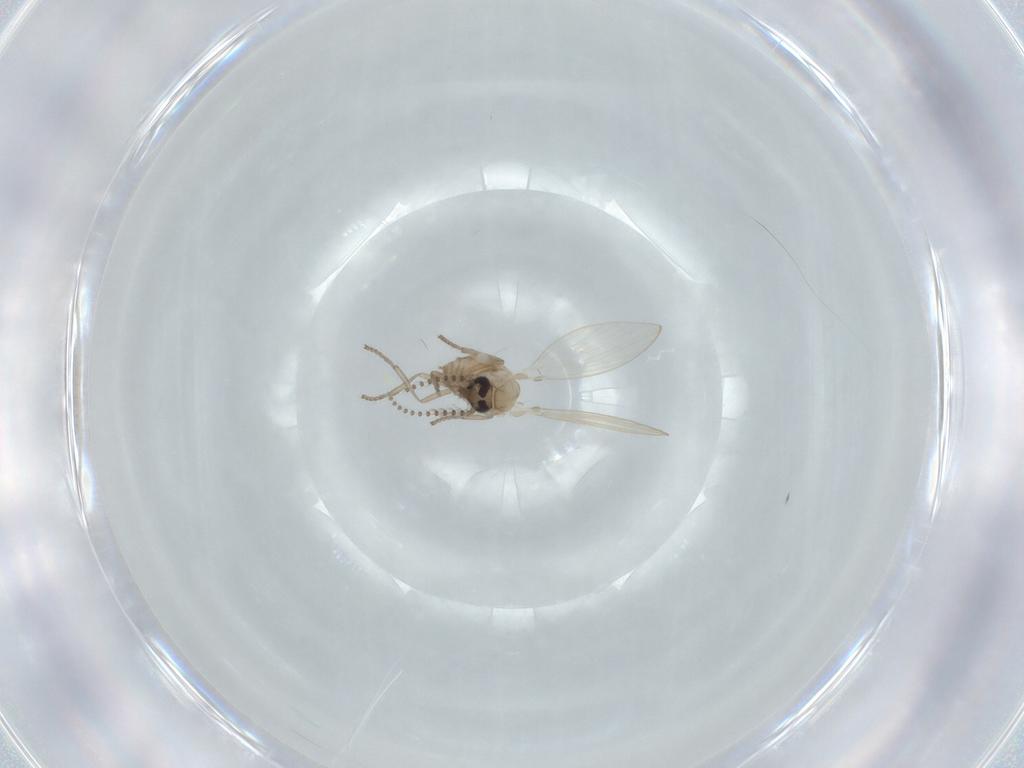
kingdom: Animalia
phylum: Arthropoda
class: Insecta
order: Diptera
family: Psychodidae
